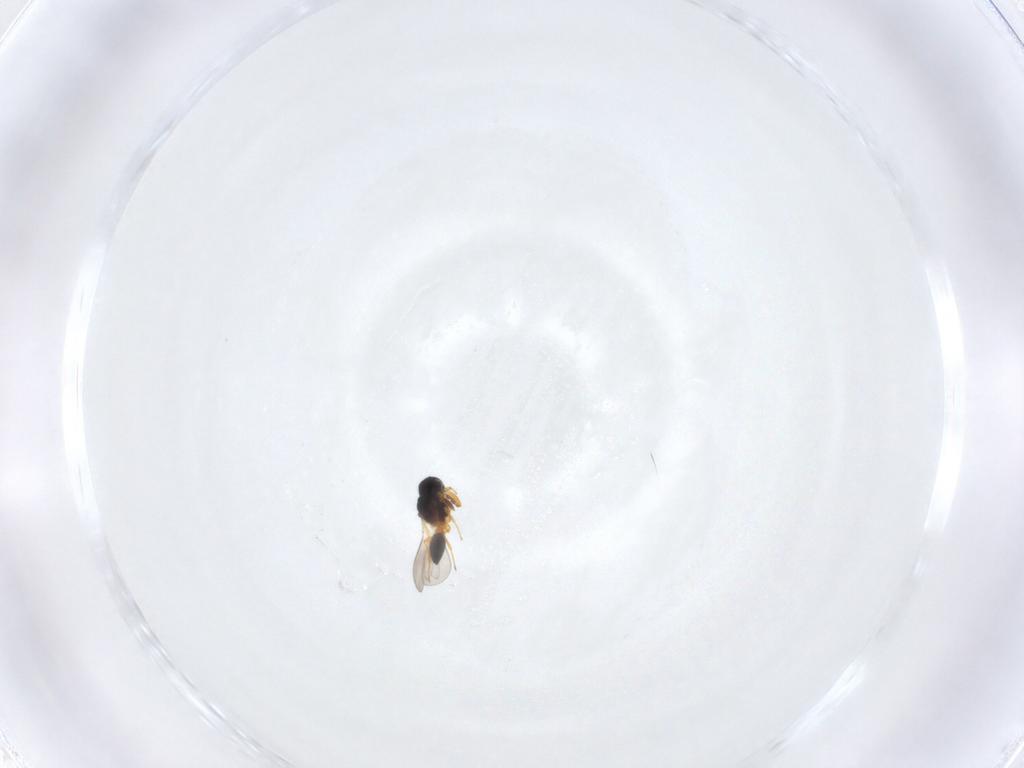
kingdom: Animalia
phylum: Arthropoda
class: Insecta
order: Hymenoptera
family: Platygastridae
